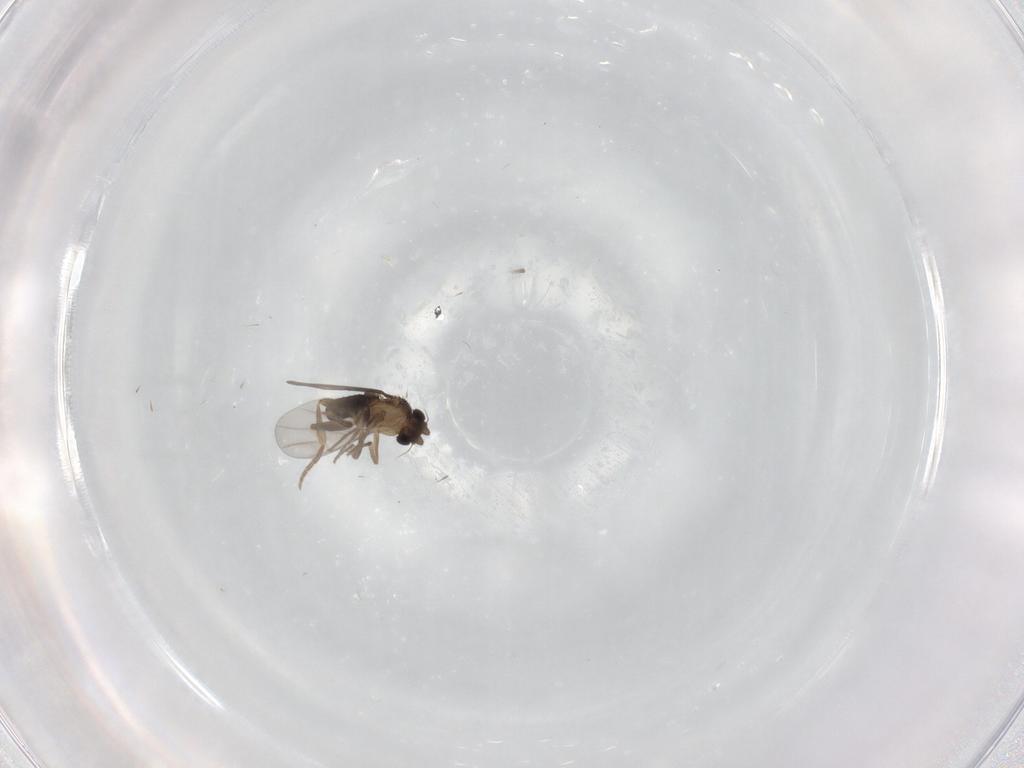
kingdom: Animalia
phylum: Arthropoda
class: Insecta
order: Diptera
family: Chironomidae
